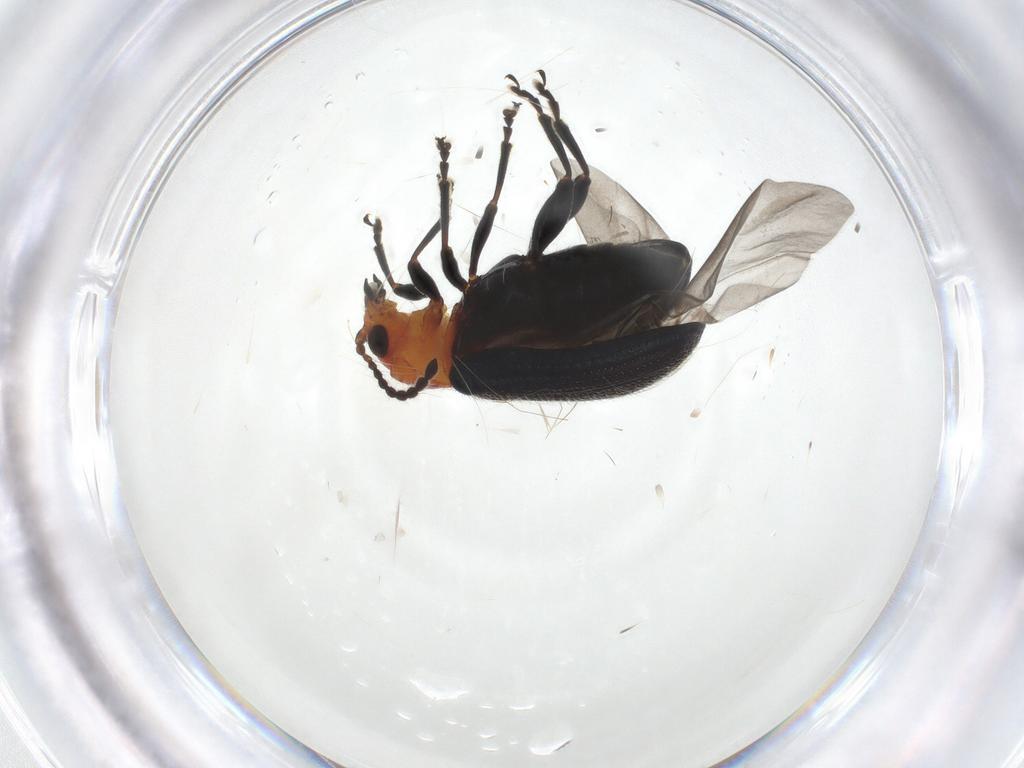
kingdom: Animalia
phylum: Arthropoda
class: Insecta
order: Coleoptera
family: Chrysomelidae
